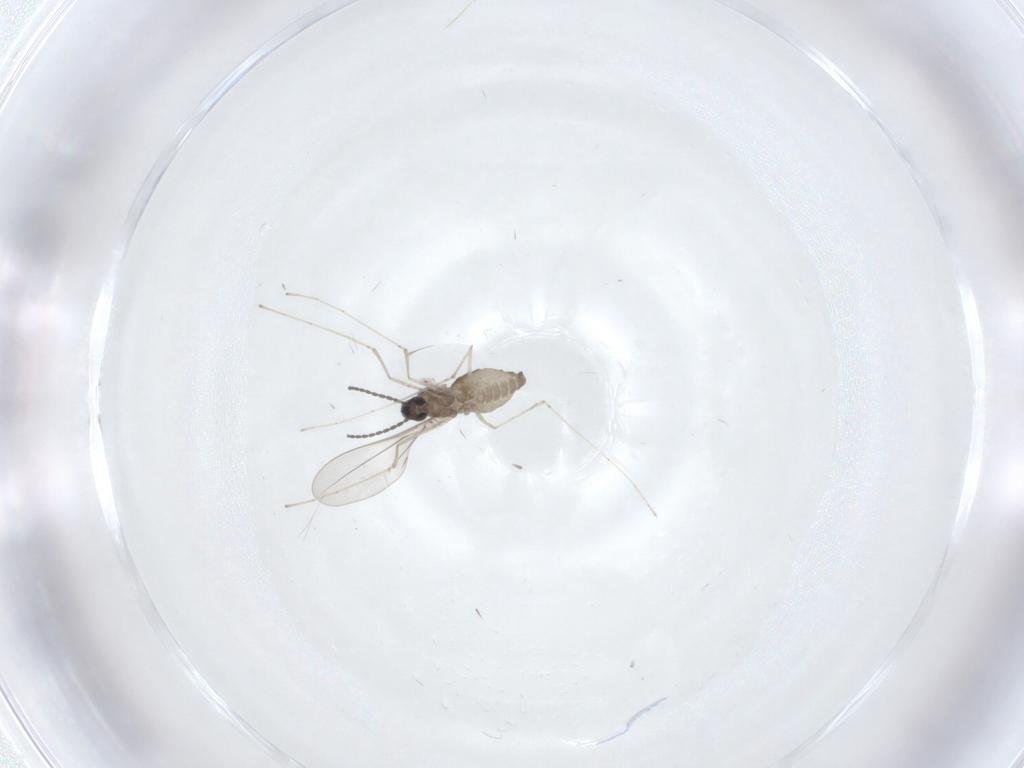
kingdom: Animalia
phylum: Arthropoda
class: Insecta
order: Diptera
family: Cecidomyiidae
